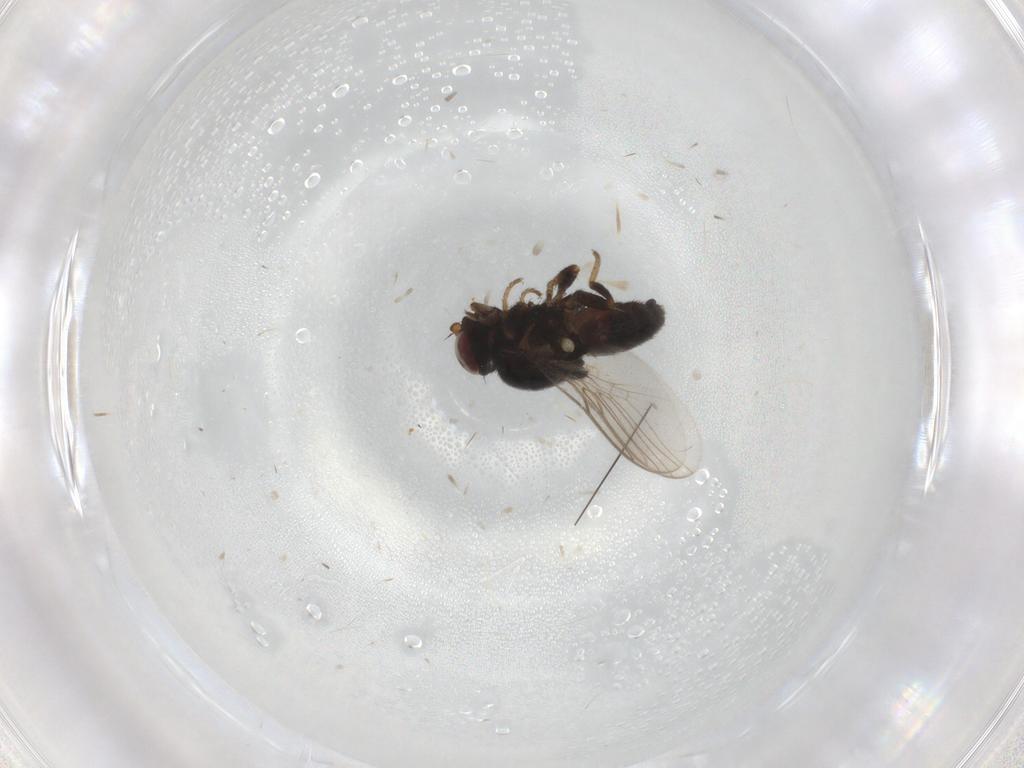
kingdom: Animalia
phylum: Arthropoda
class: Insecta
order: Diptera
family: Chloropidae
